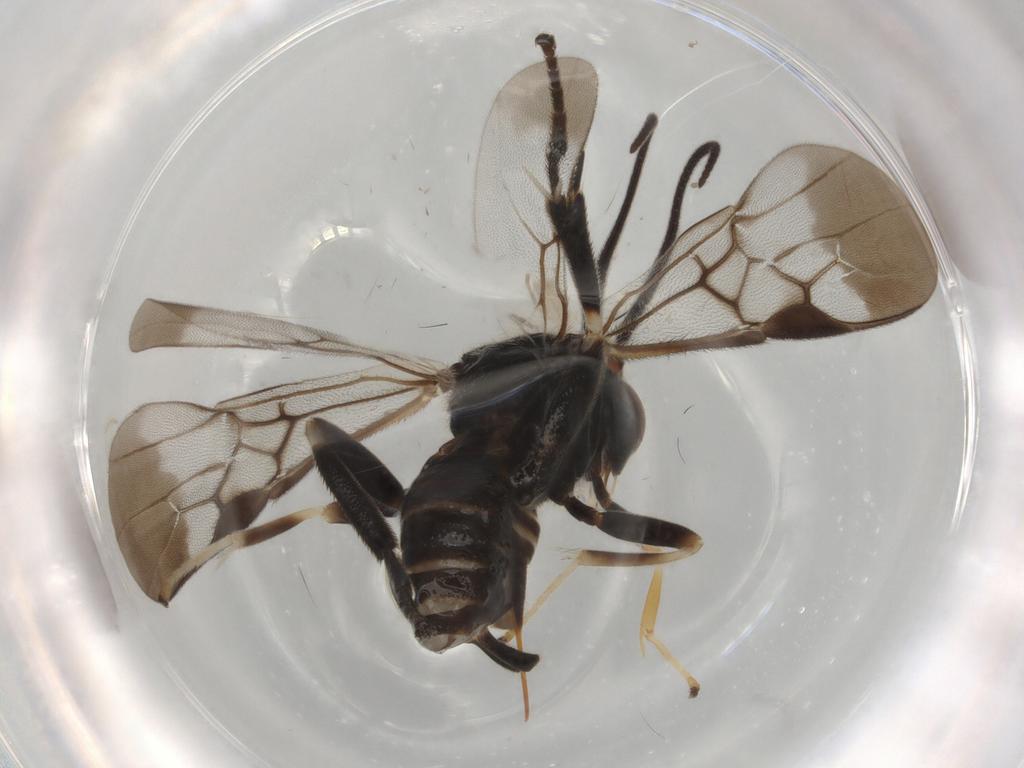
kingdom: Animalia
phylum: Arthropoda
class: Insecta
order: Hymenoptera
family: Braconidae
